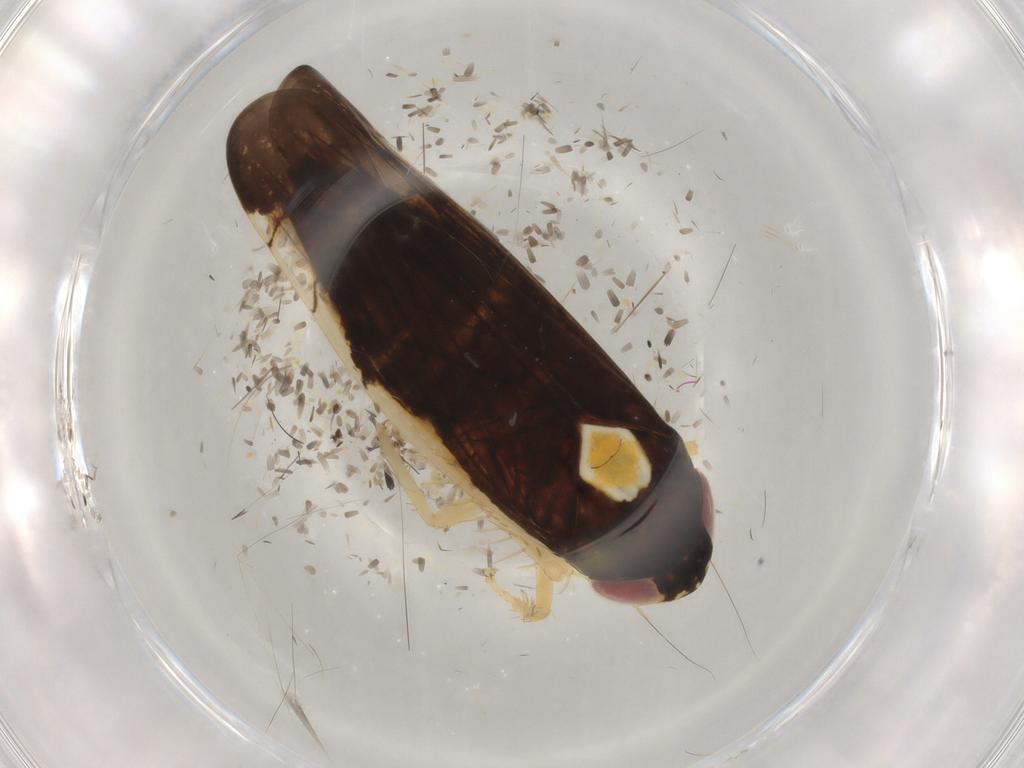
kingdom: Animalia
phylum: Arthropoda
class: Insecta
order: Hemiptera
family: Cicadellidae
